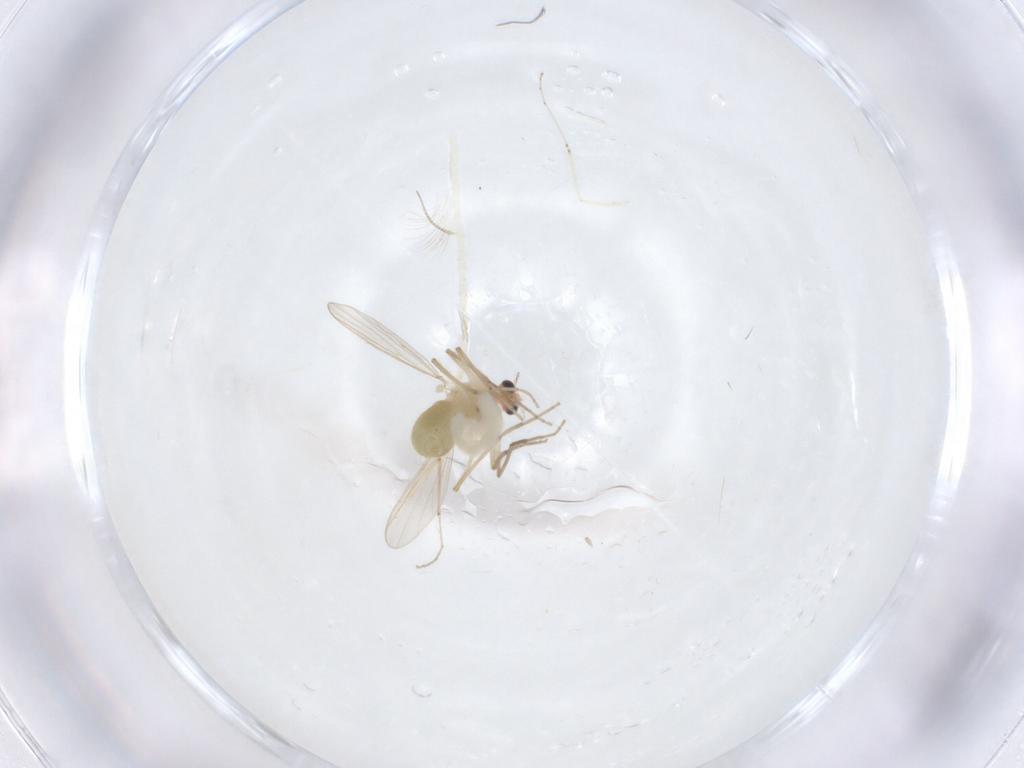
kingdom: Animalia
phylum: Arthropoda
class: Insecta
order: Diptera
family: Cecidomyiidae
